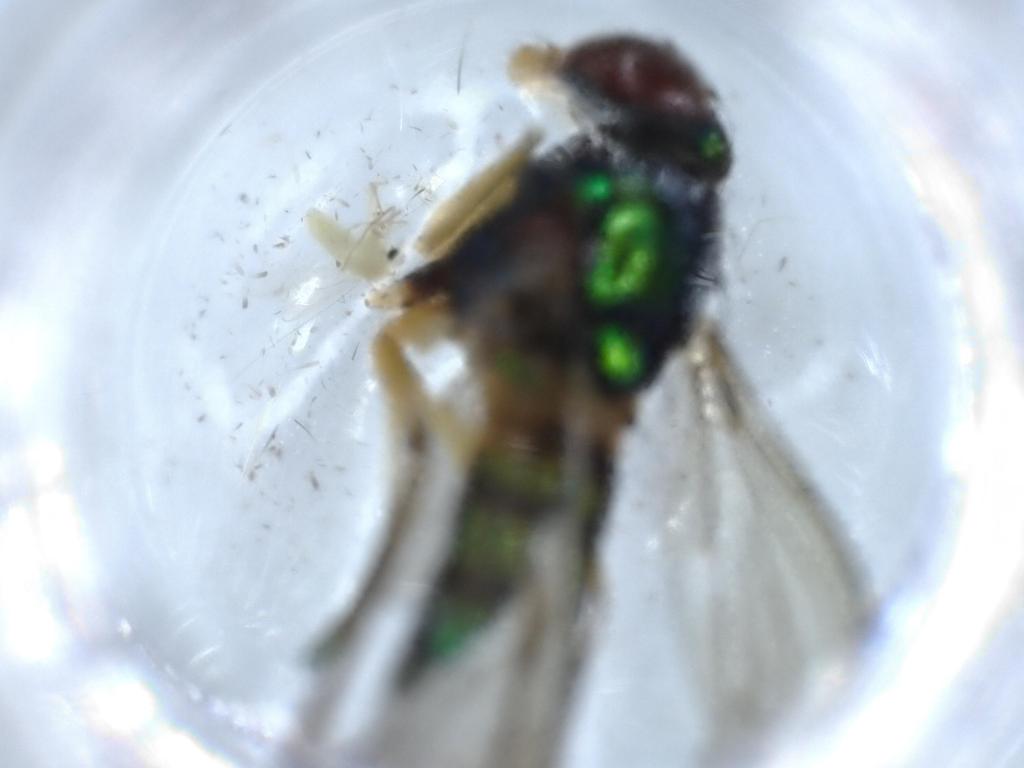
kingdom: Animalia
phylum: Arthropoda
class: Insecta
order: Diptera
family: Dolichopodidae
